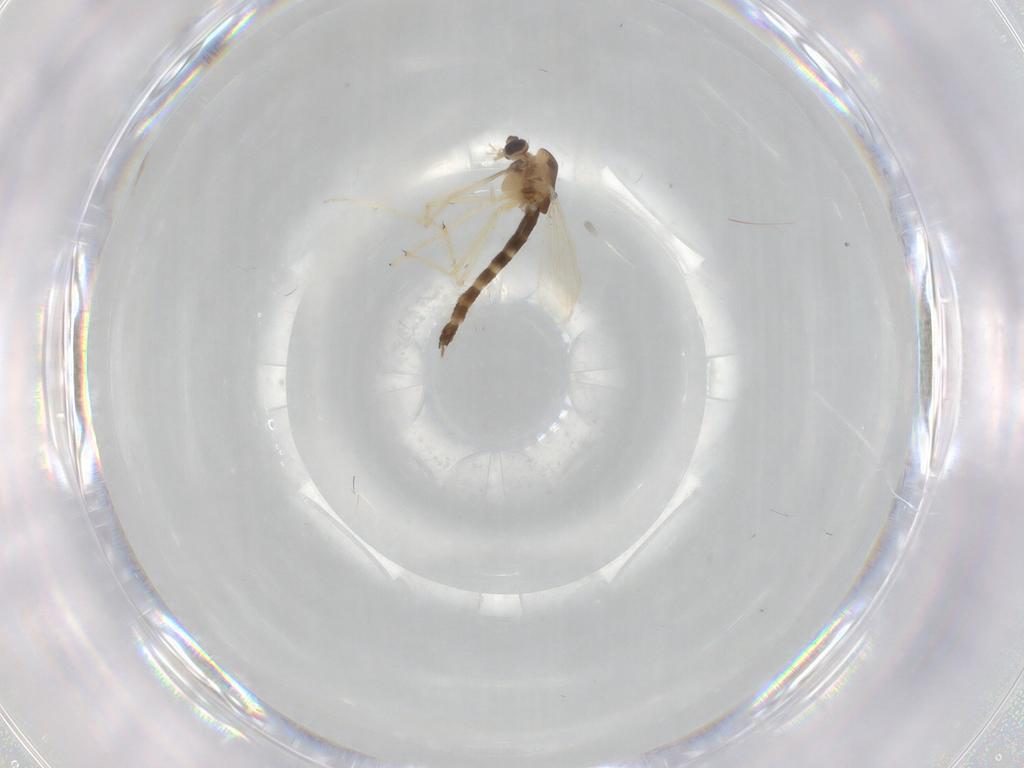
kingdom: Animalia
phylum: Arthropoda
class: Insecta
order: Diptera
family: Chironomidae
